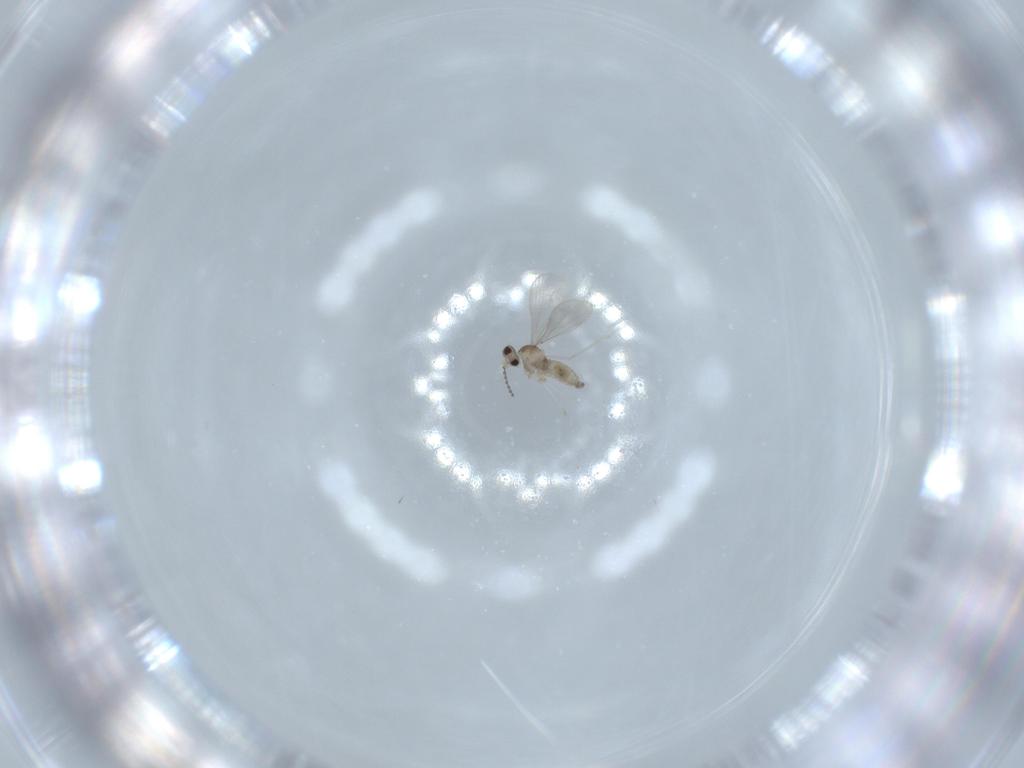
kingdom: Animalia
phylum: Arthropoda
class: Insecta
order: Diptera
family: Cecidomyiidae
